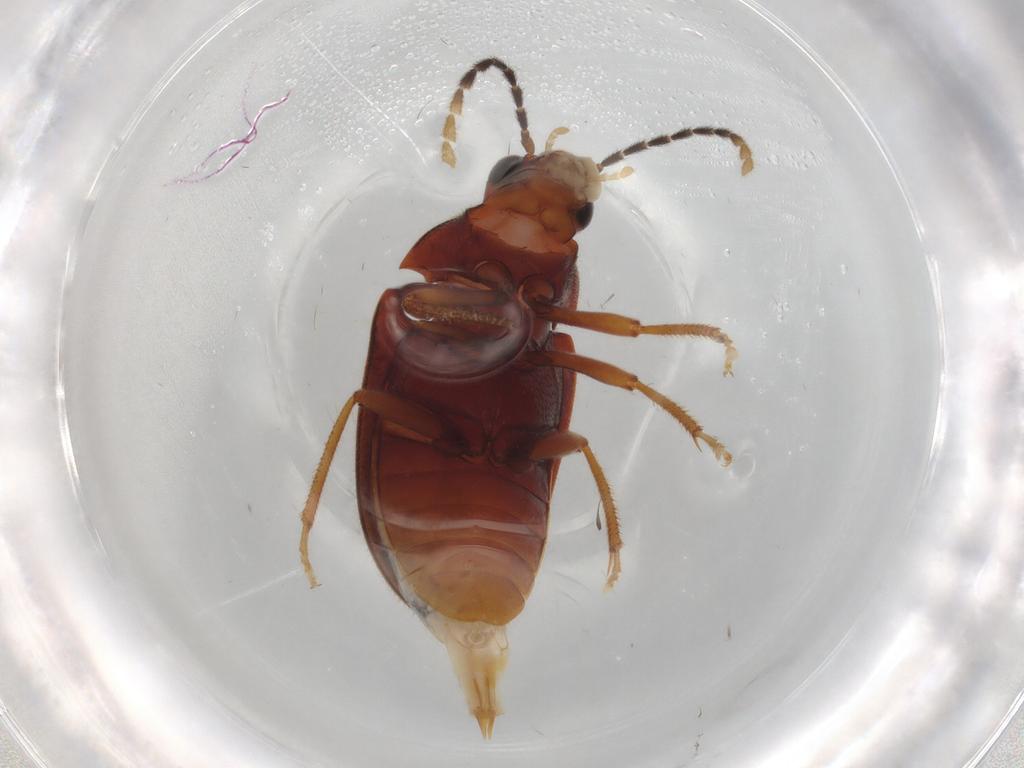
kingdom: Animalia
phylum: Arthropoda
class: Insecta
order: Coleoptera
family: Ptilodactylidae
